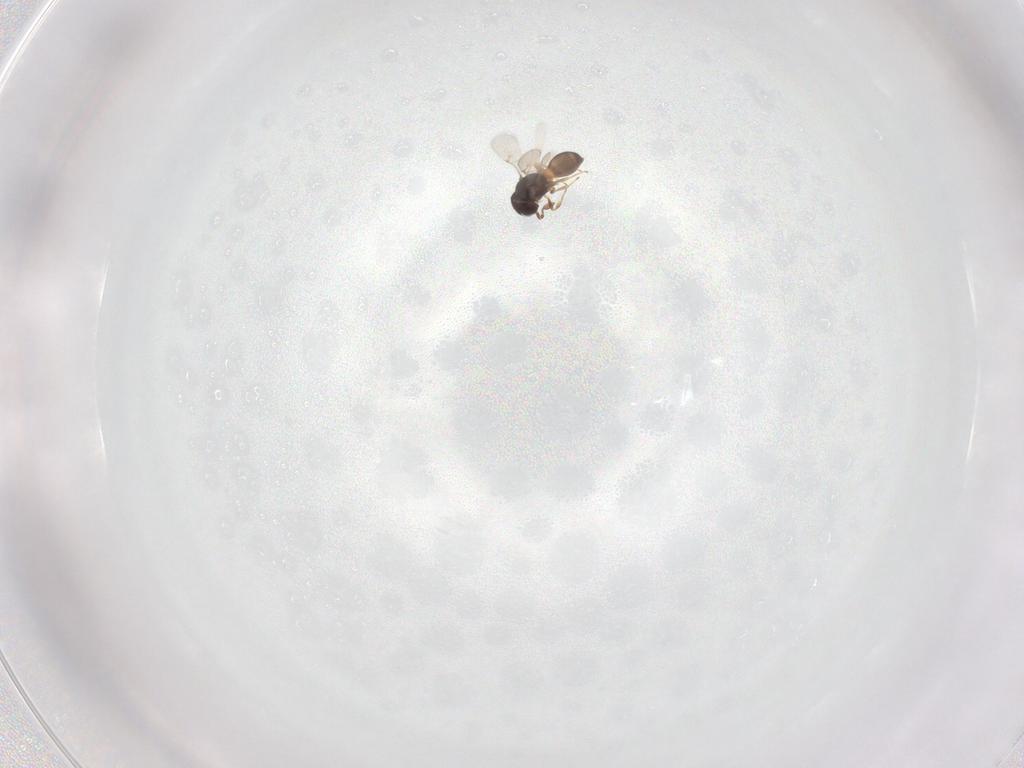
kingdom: Animalia
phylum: Arthropoda
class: Insecta
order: Hymenoptera
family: Scelionidae
